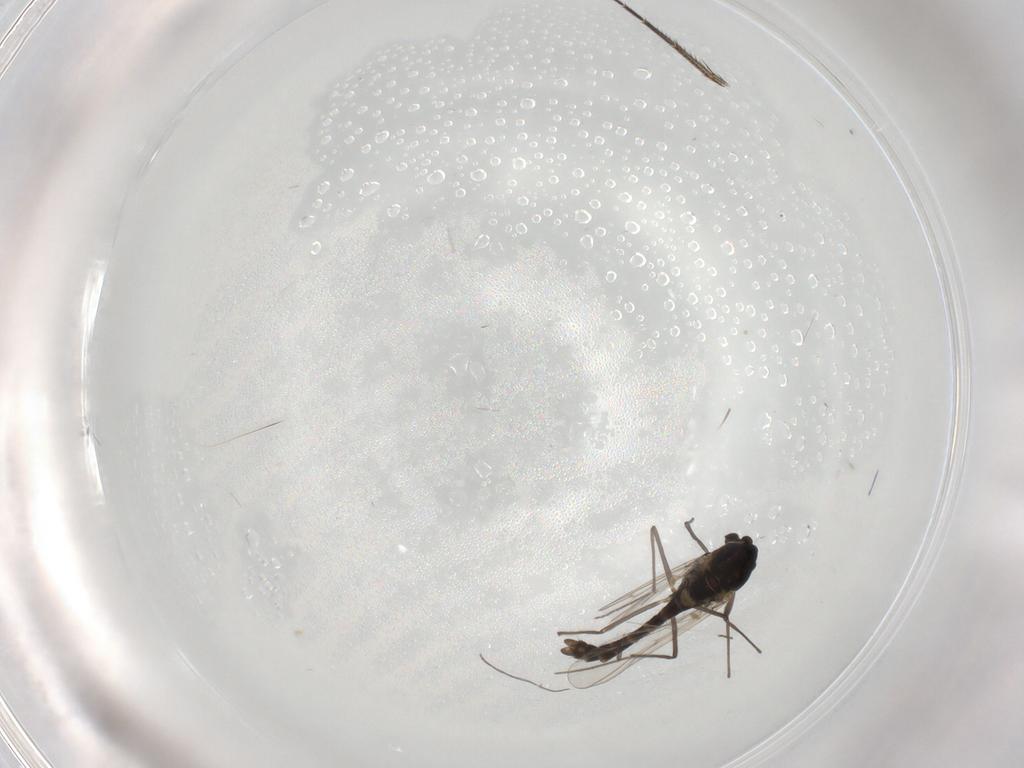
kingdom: Animalia
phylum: Arthropoda
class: Insecta
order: Diptera
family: Chironomidae
